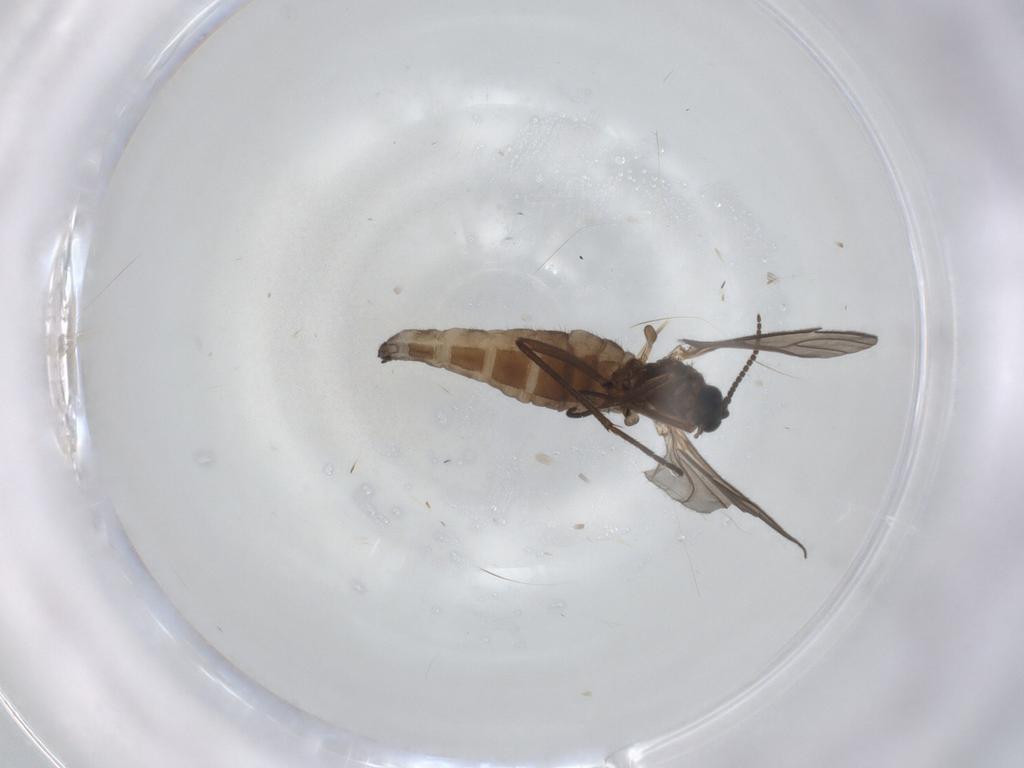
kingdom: Animalia
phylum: Arthropoda
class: Insecta
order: Diptera
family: Sciaridae
